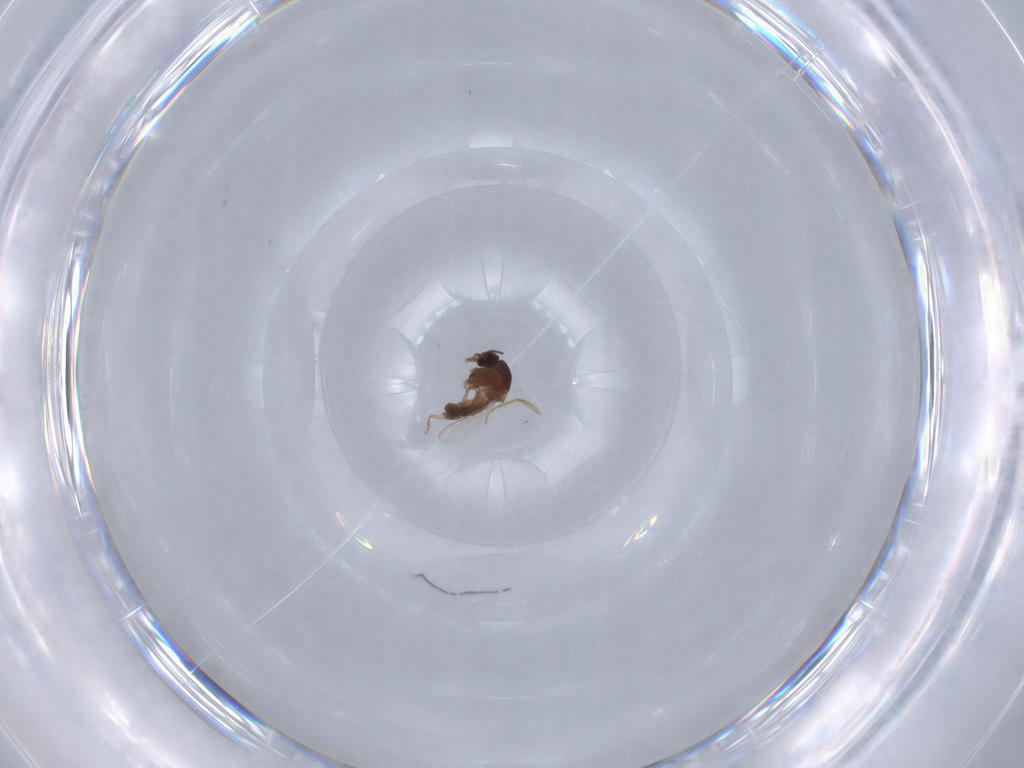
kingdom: Animalia
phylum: Arthropoda
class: Insecta
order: Diptera
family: Ceratopogonidae
